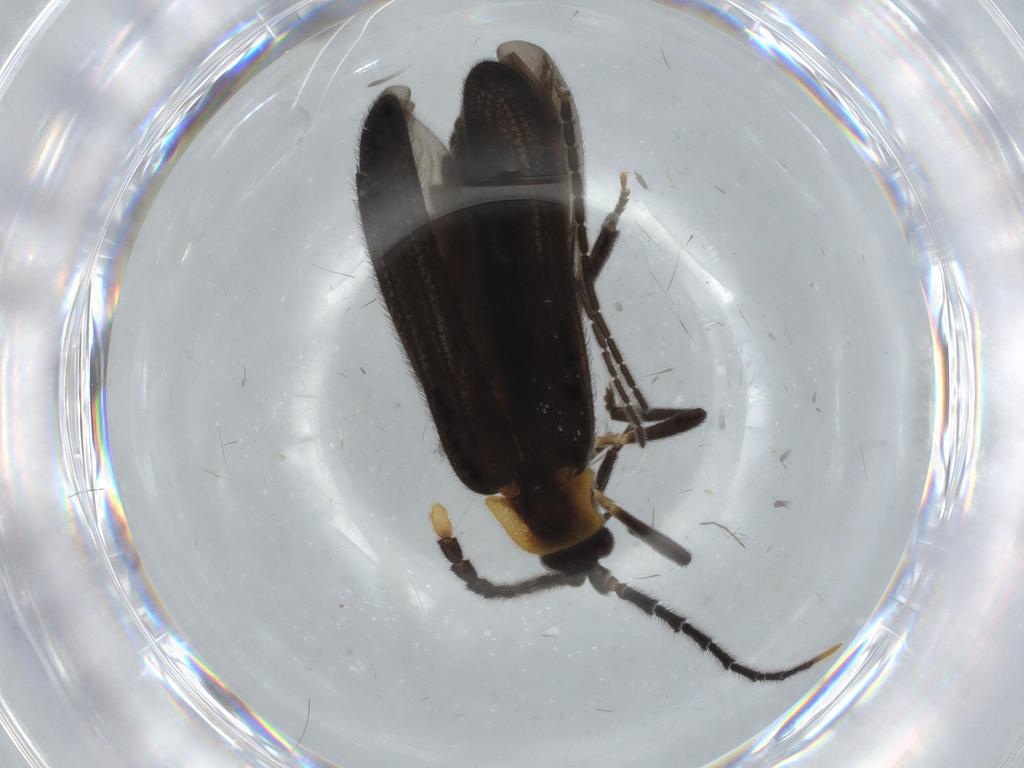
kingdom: Animalia
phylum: Arthropoda
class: Insecta
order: Coleoptera
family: Lycidae
